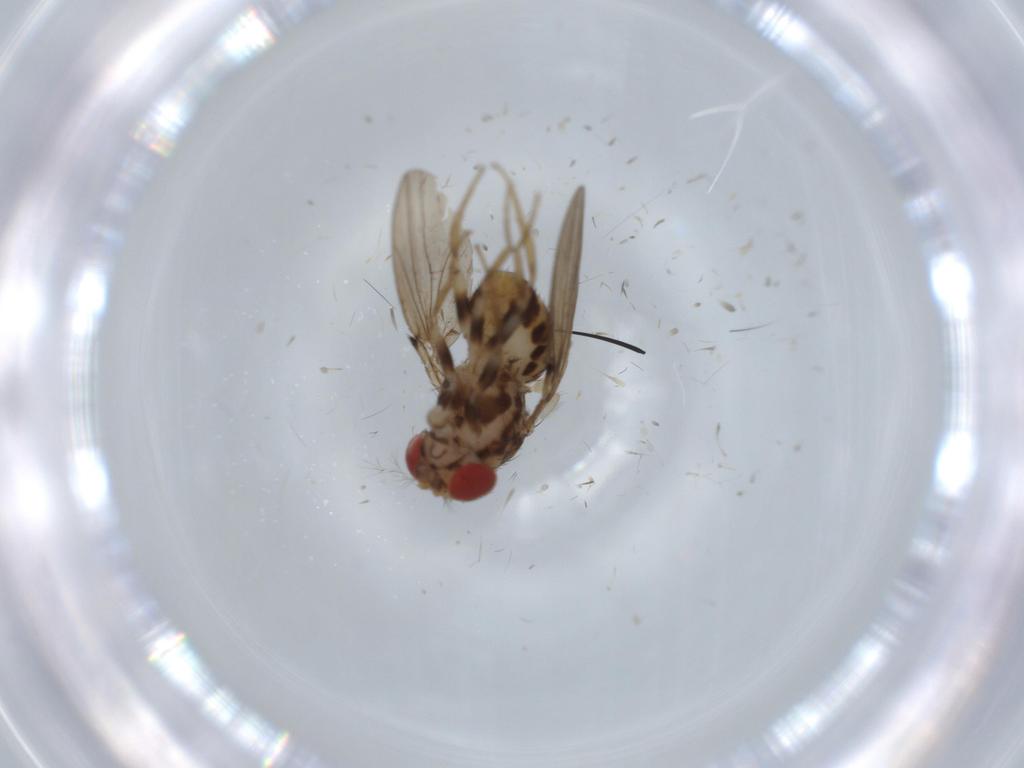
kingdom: Animalia
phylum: Arthropoda
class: Insecta
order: Diptera
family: Drosophilidae
